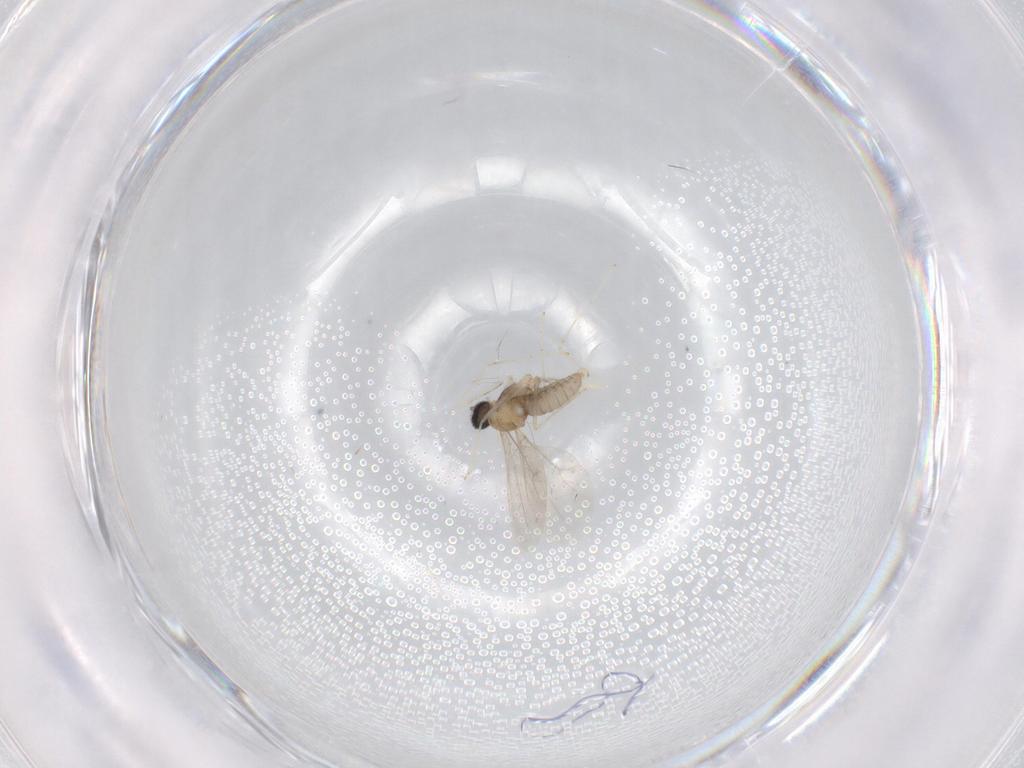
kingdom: Animalia
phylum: Arthropoda
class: Insecta
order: Diptera
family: Cecidomyiidae
